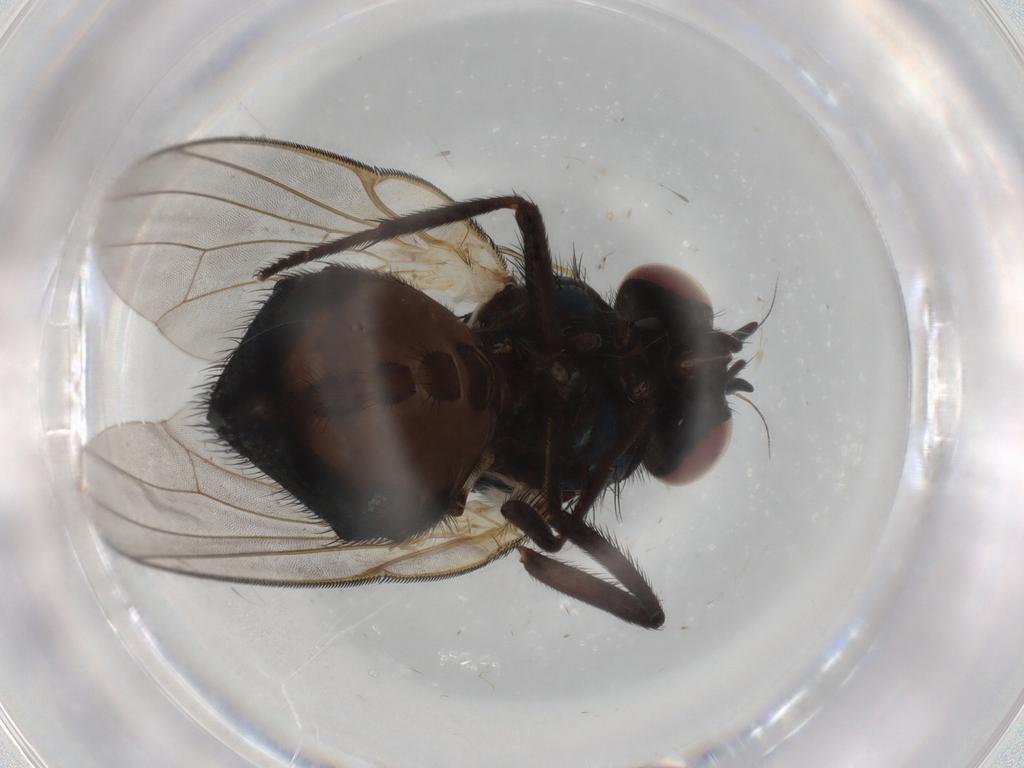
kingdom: Animalia
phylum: Arthropoda
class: Insecta
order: Diptera
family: Lonchaeidae
